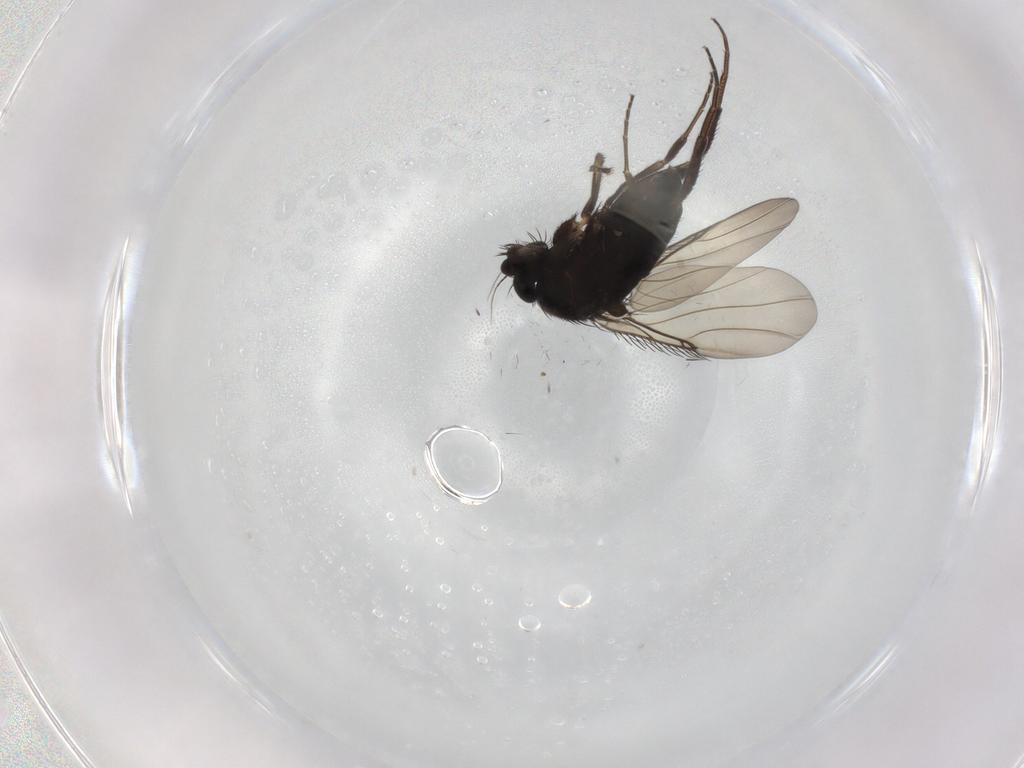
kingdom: Animalia
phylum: Arthropoda
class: Insecta
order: Diptera
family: Phoridae
